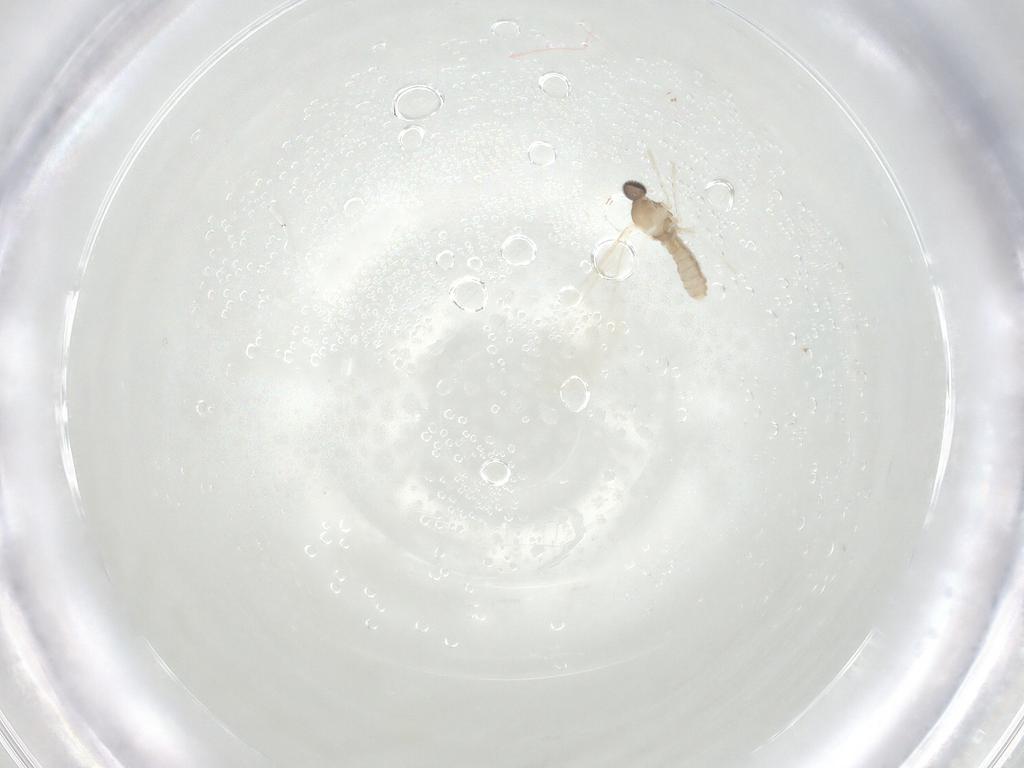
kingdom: Animalia
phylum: Arthropoda
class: Insecta
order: Diptera
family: Cecidomyiidae
